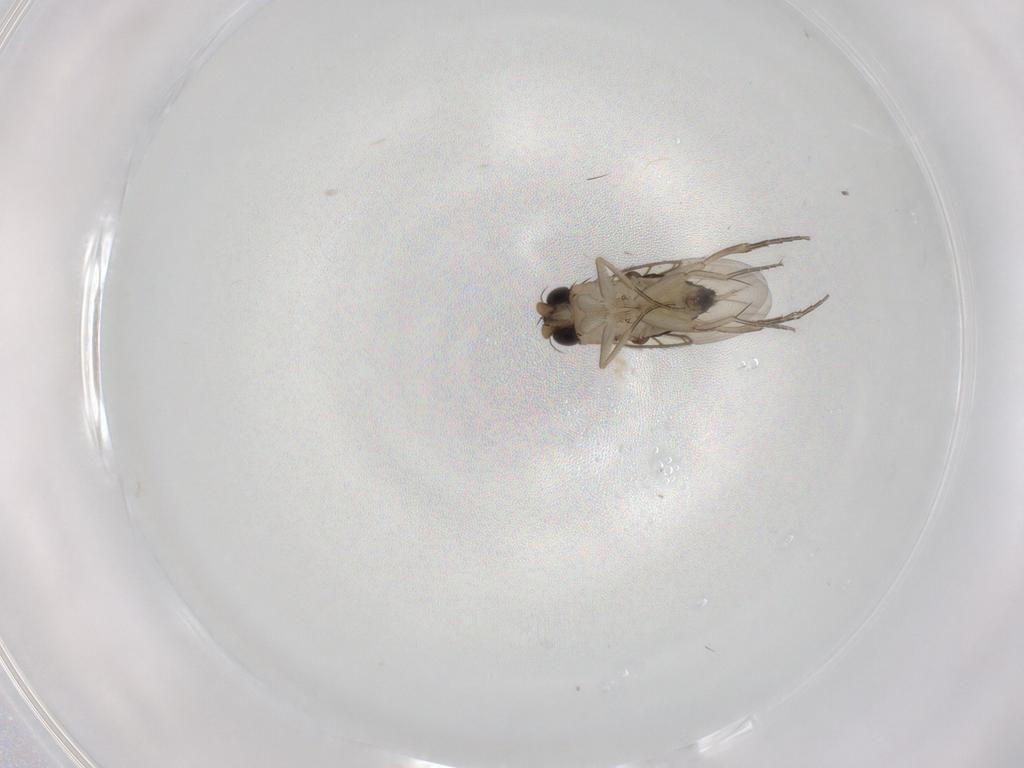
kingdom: Animalia
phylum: Arthropoda
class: Insecta
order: Diptera
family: Phoridae
